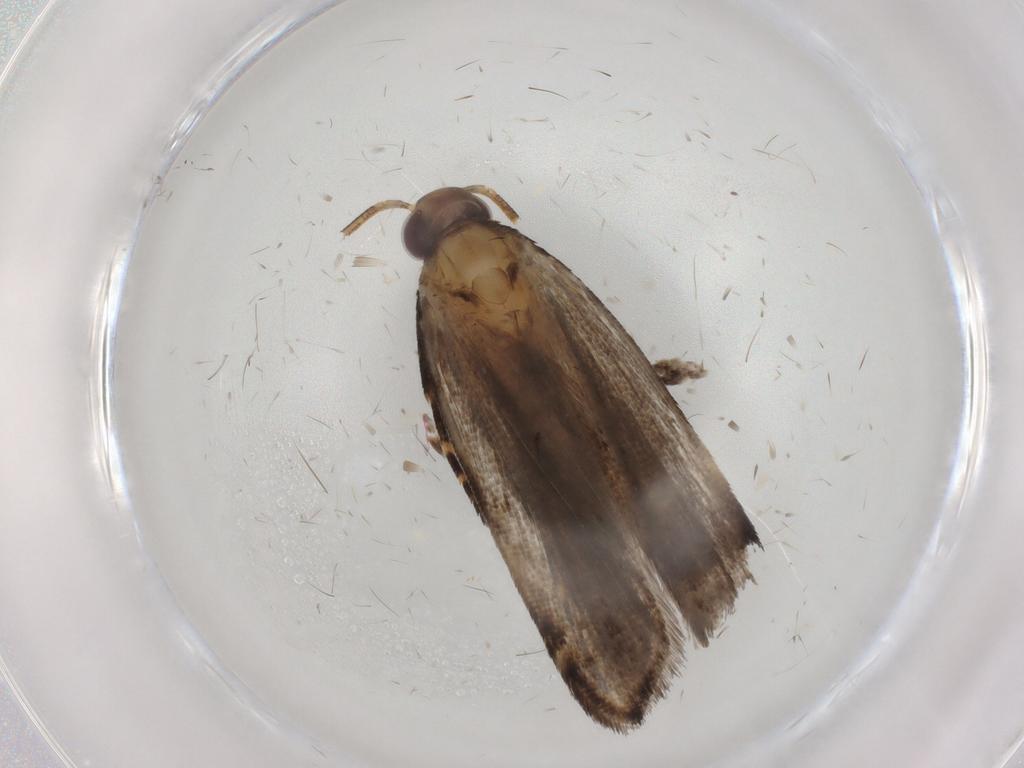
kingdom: Animalia
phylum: Arthropoda
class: Insecta
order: Lepidoptera
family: Gelechiidae
